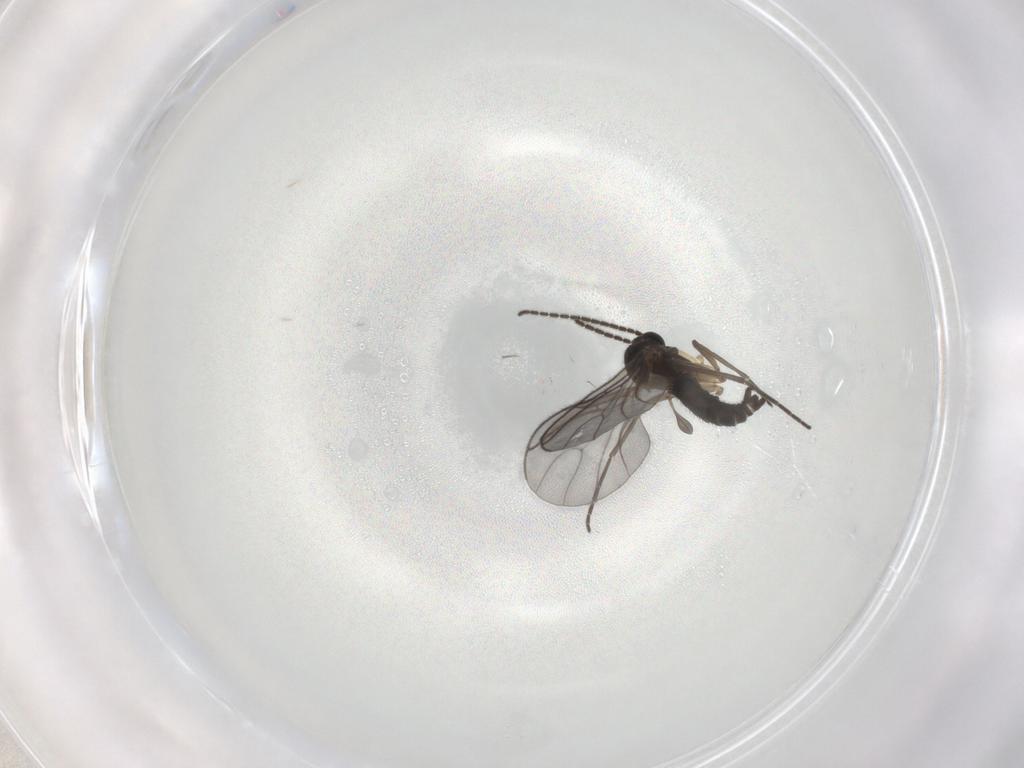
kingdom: Animalia
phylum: Arthropoda
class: Insecta
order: Diptera
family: Sciaridae
